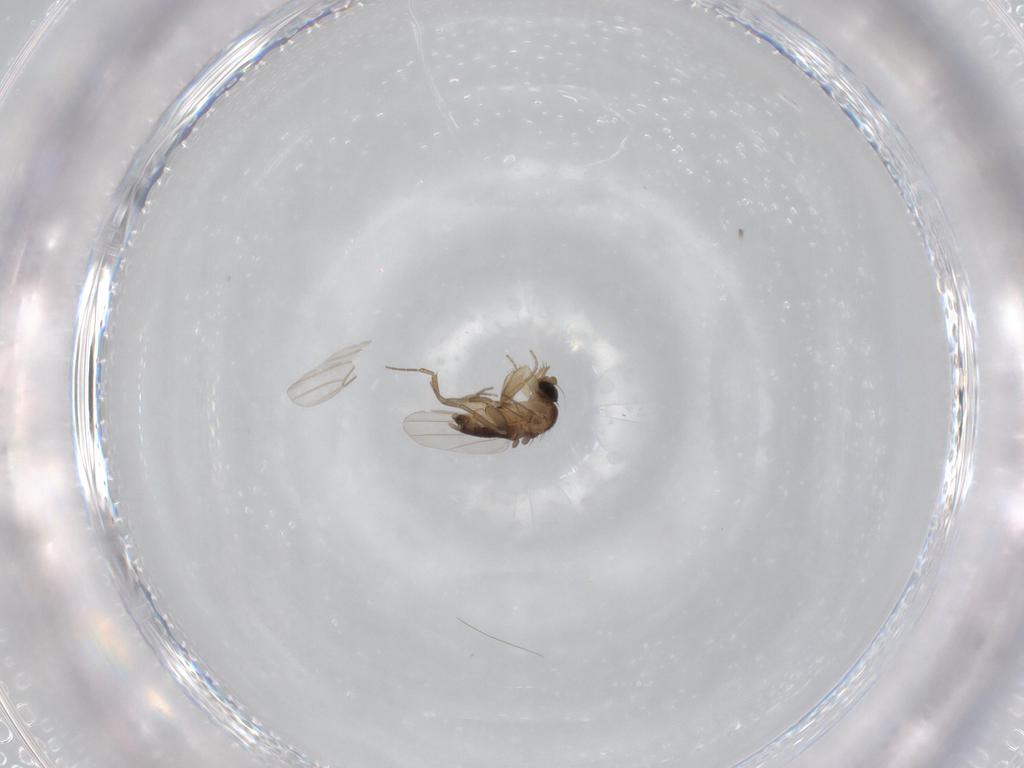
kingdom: Animalia
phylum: Arthropoda
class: Insecta
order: Diptera
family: Phoridae
